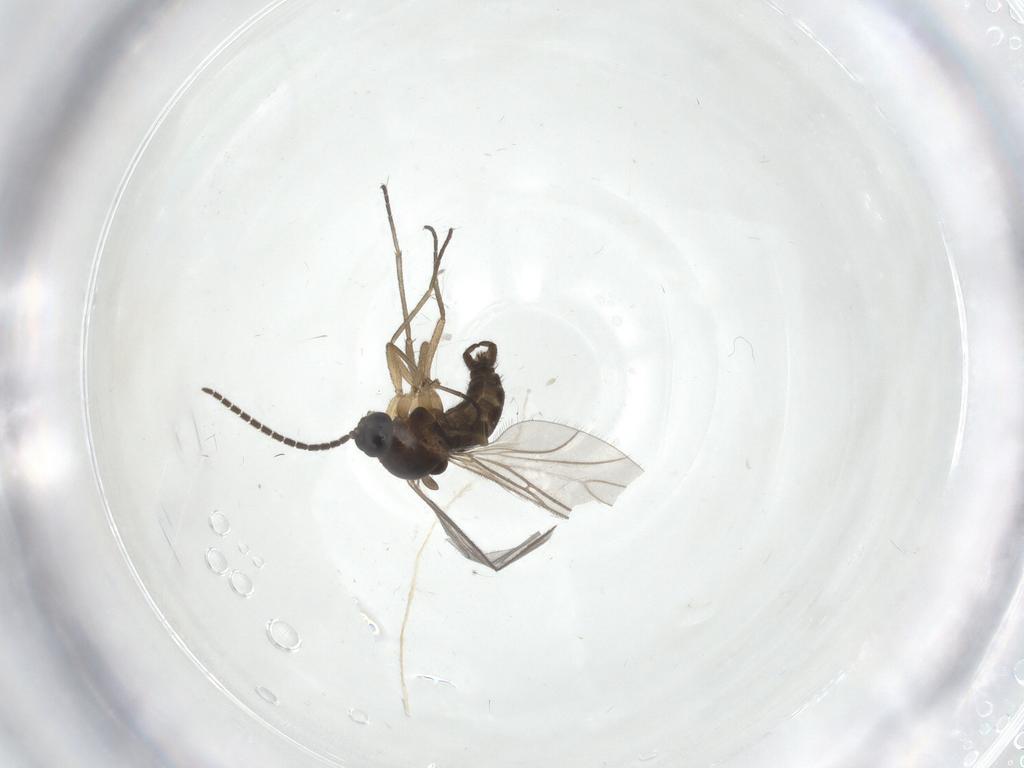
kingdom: Animalia
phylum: Arthropoda
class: Insecta
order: Diptera
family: Sciaridae
